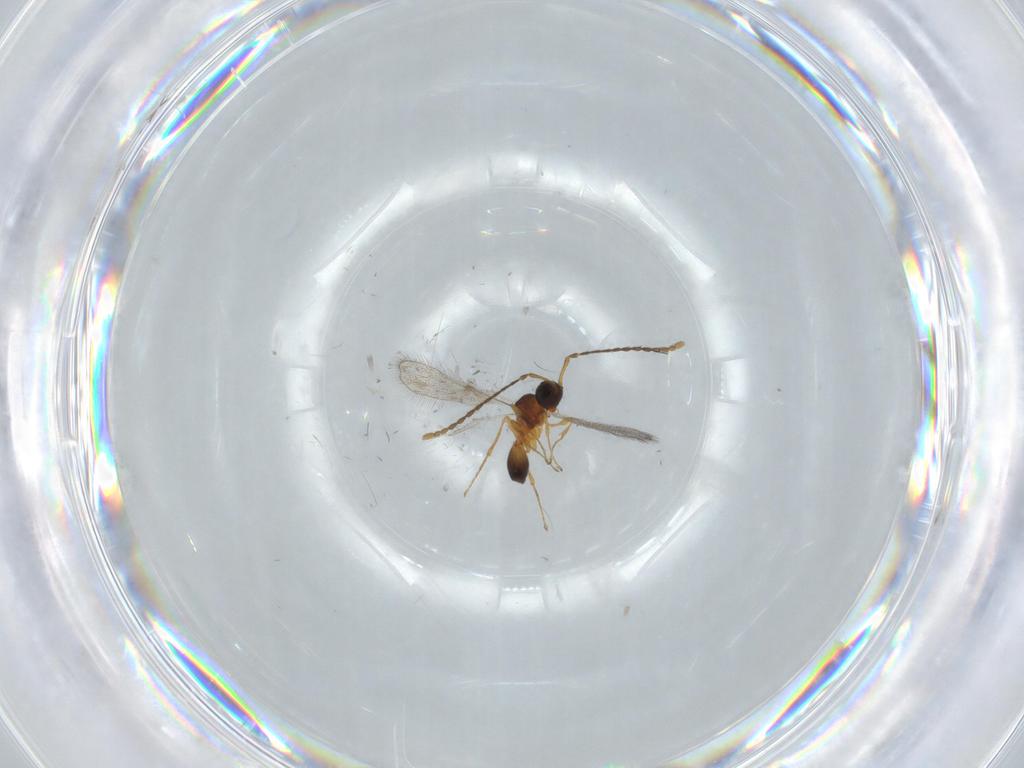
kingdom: Animalia
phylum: Arthropoda
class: Insecta
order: Hymenoptera
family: Diapriidae
